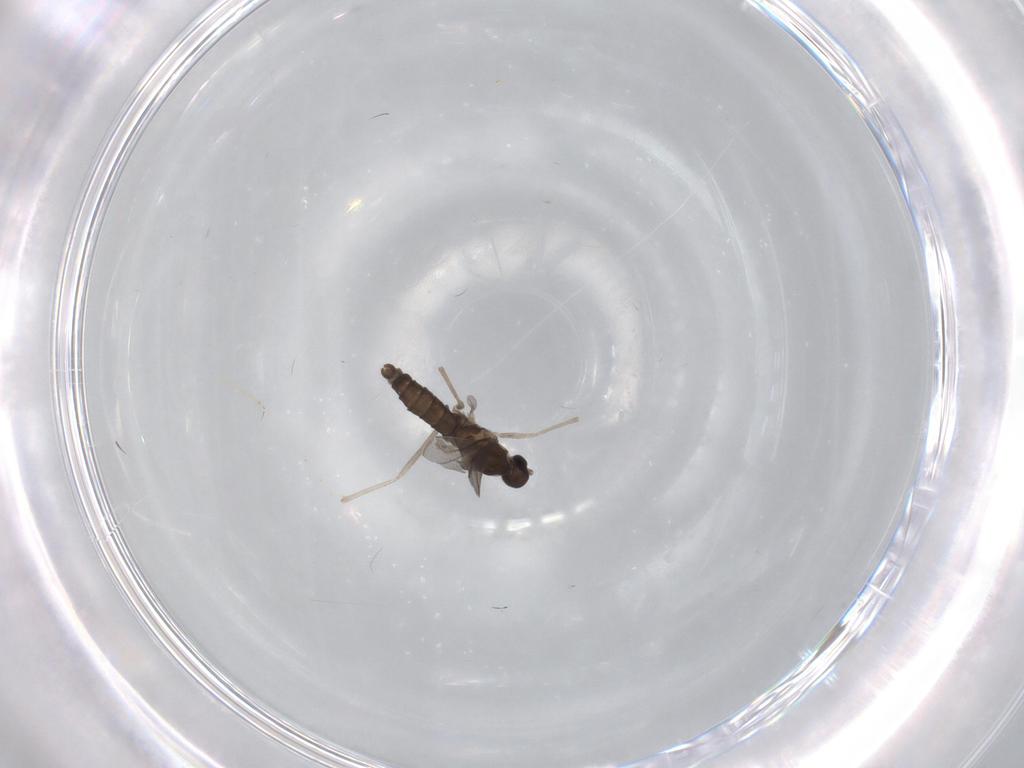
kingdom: Animalia
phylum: Arthropoda
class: Insecta
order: Diptera
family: Cecidomyiidae
